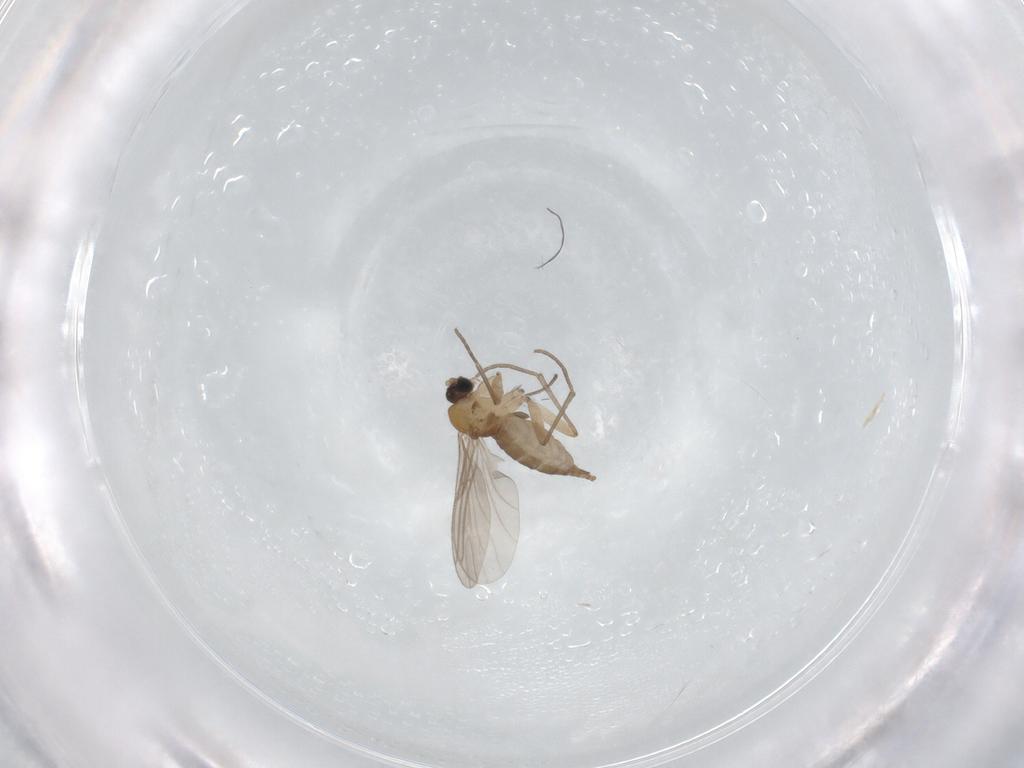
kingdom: Animalia
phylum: Arthropoda
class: Insecta
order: Diptera
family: Sciaridae
